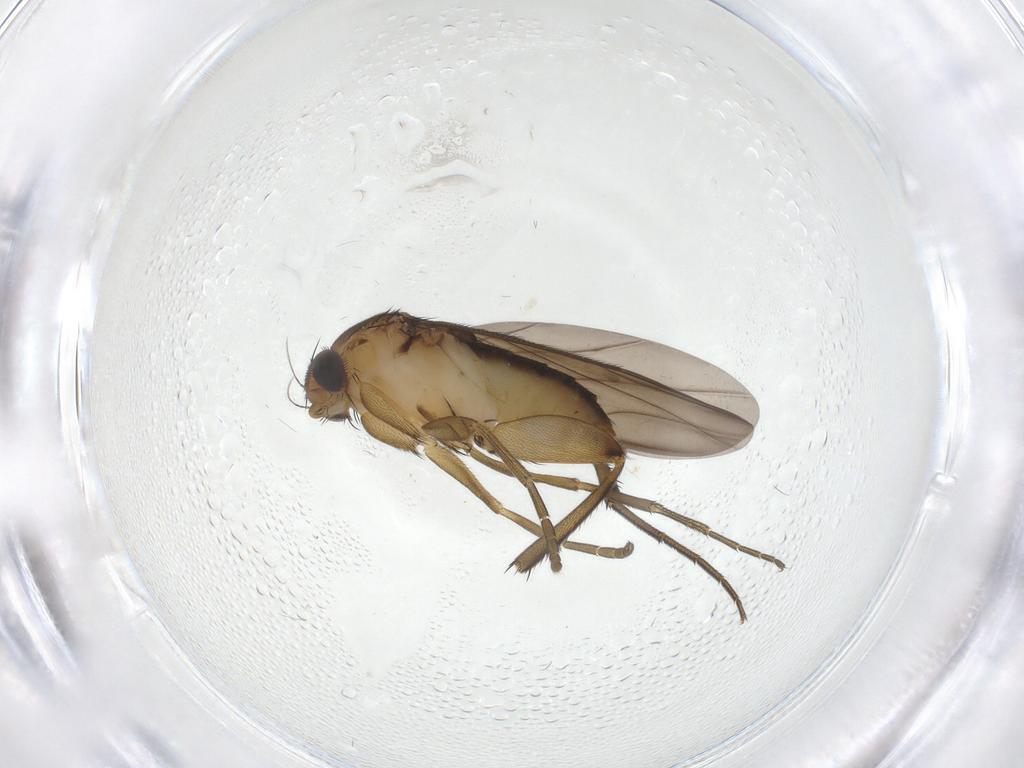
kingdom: Animalia
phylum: Arthropoda
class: Insecta
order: Diptera
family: Phoridae
